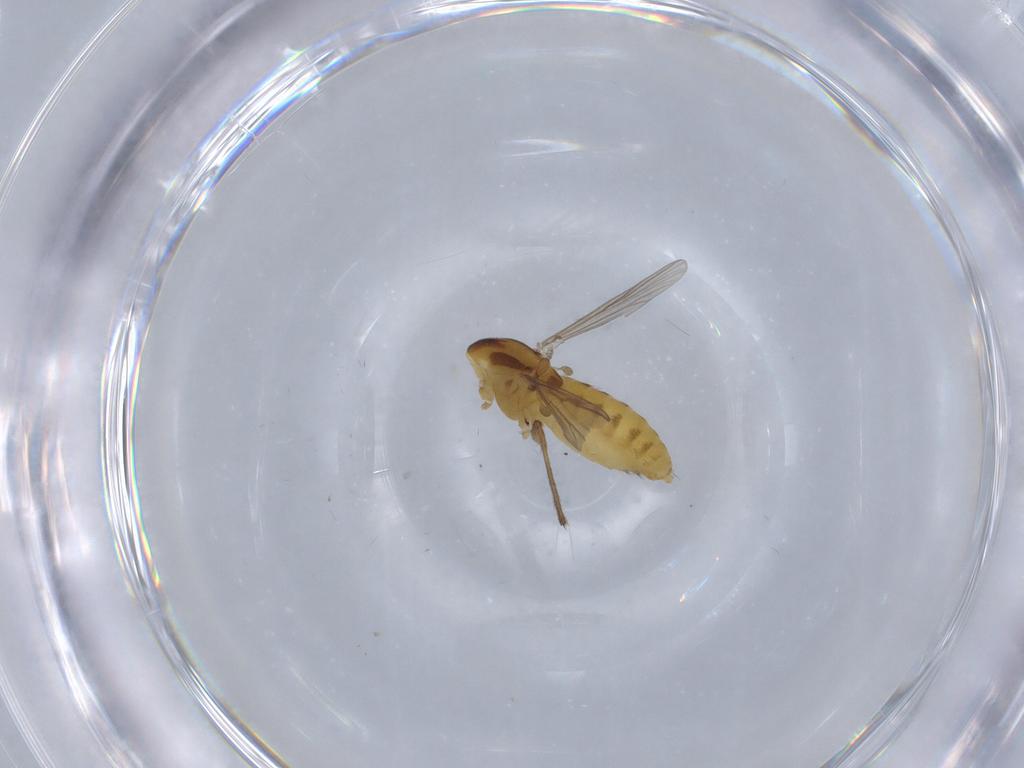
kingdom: Animalia
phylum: Arthropoda
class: Insecta
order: Diptera
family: Chironomidae
